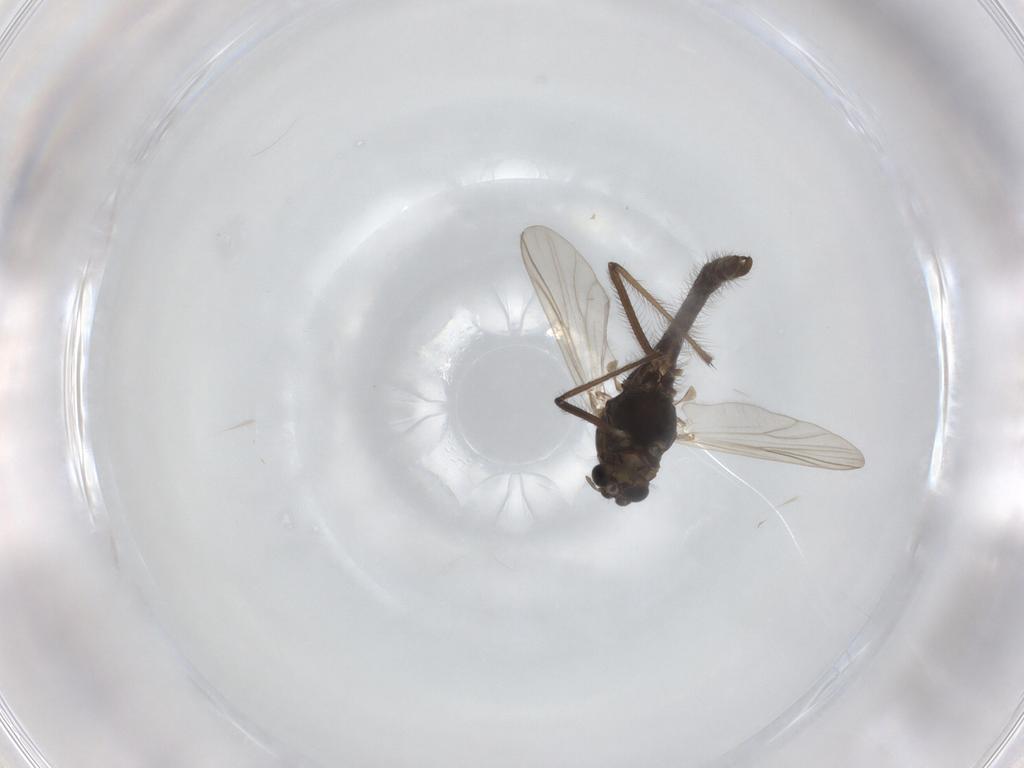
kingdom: Animalia
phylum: Arthropoda
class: Insecta
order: Diptera
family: Chironomidae
